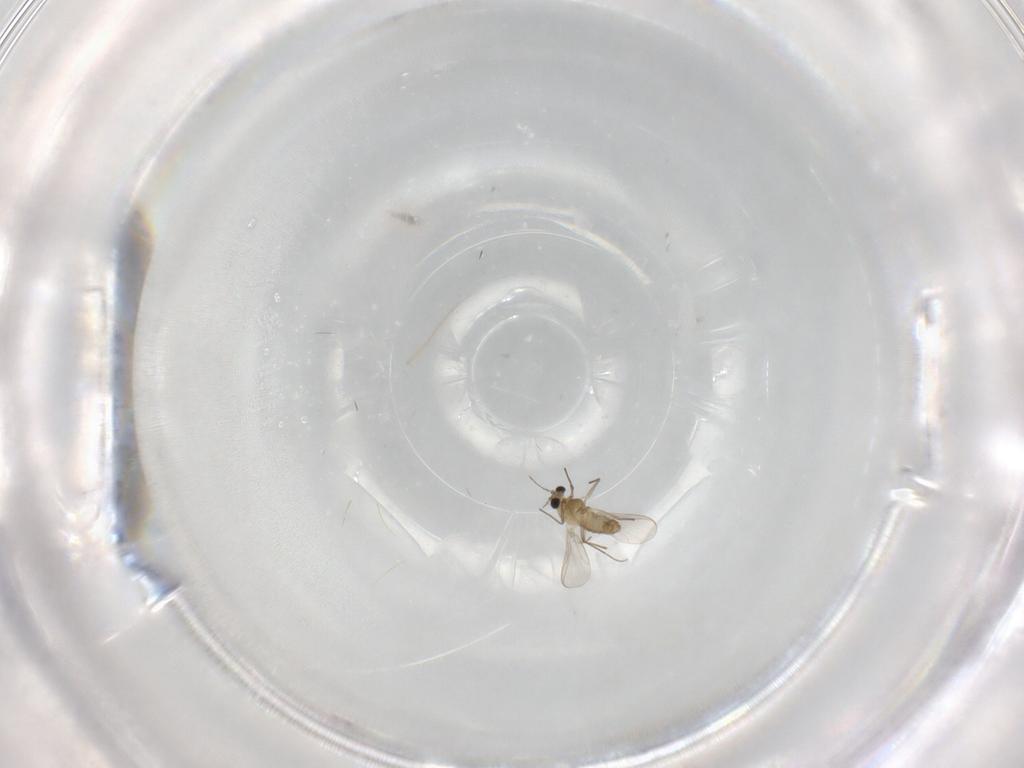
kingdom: Animalia
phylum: Arthropoda
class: Insecta
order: Diptera
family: Chironomidae
